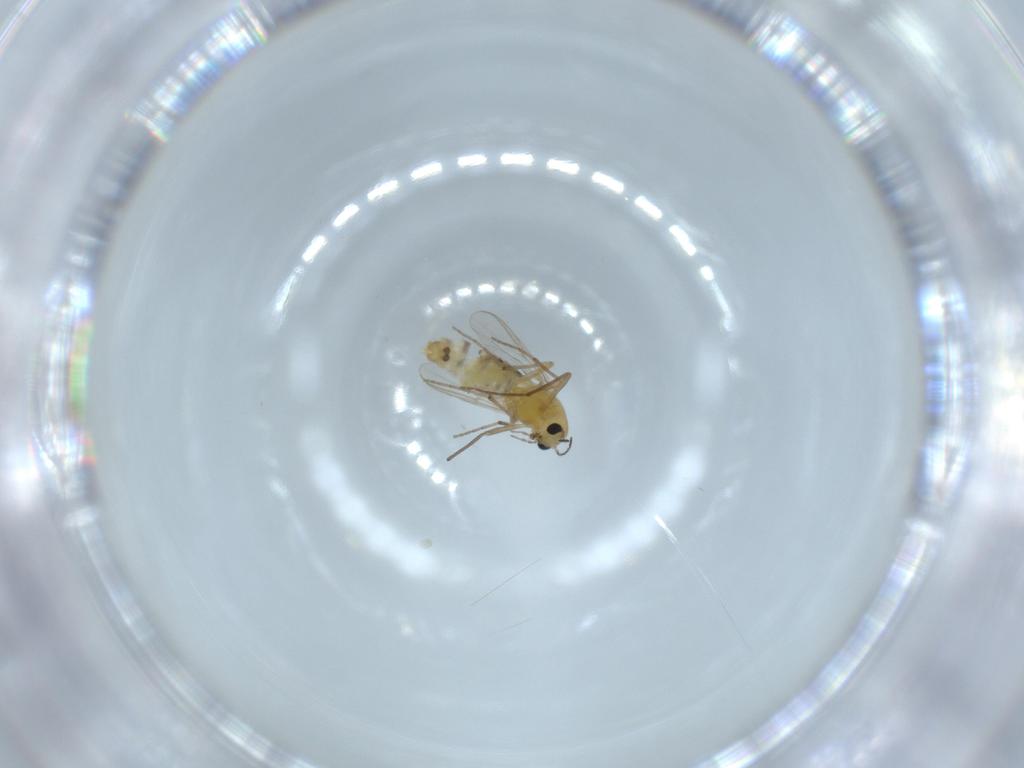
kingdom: Animalia
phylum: Arthropoda
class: Insecta
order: Diptera
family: Chironomidae
